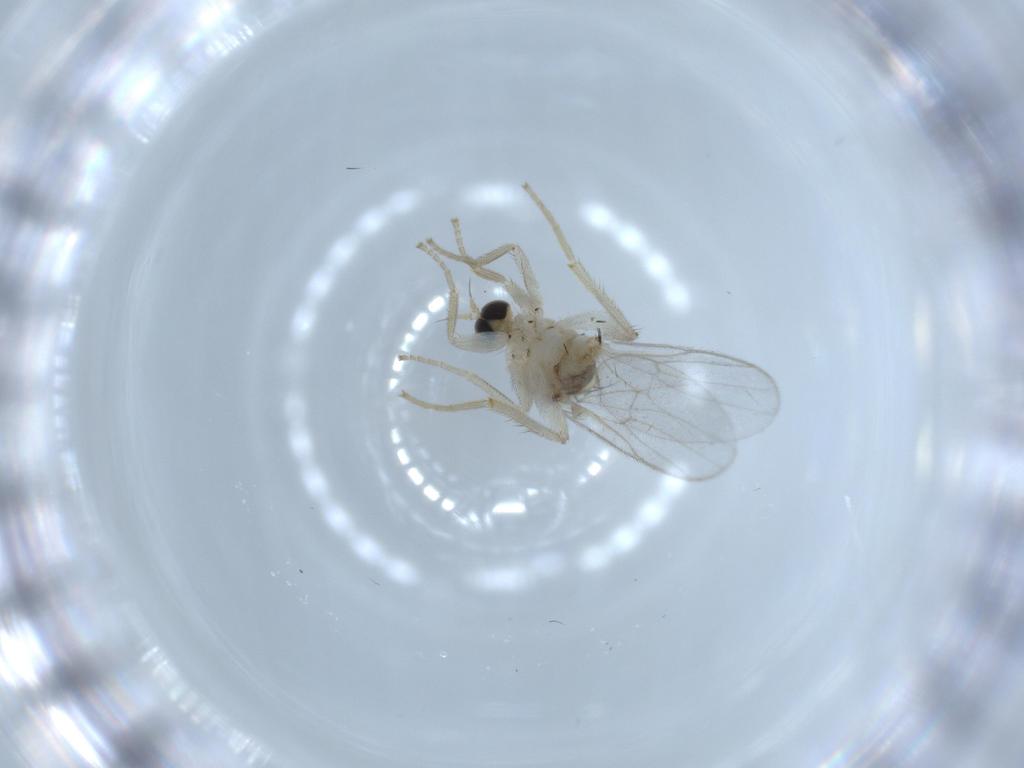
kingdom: Animalia
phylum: Arthropoda
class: Insecta
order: Diptera
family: Hybotidae
